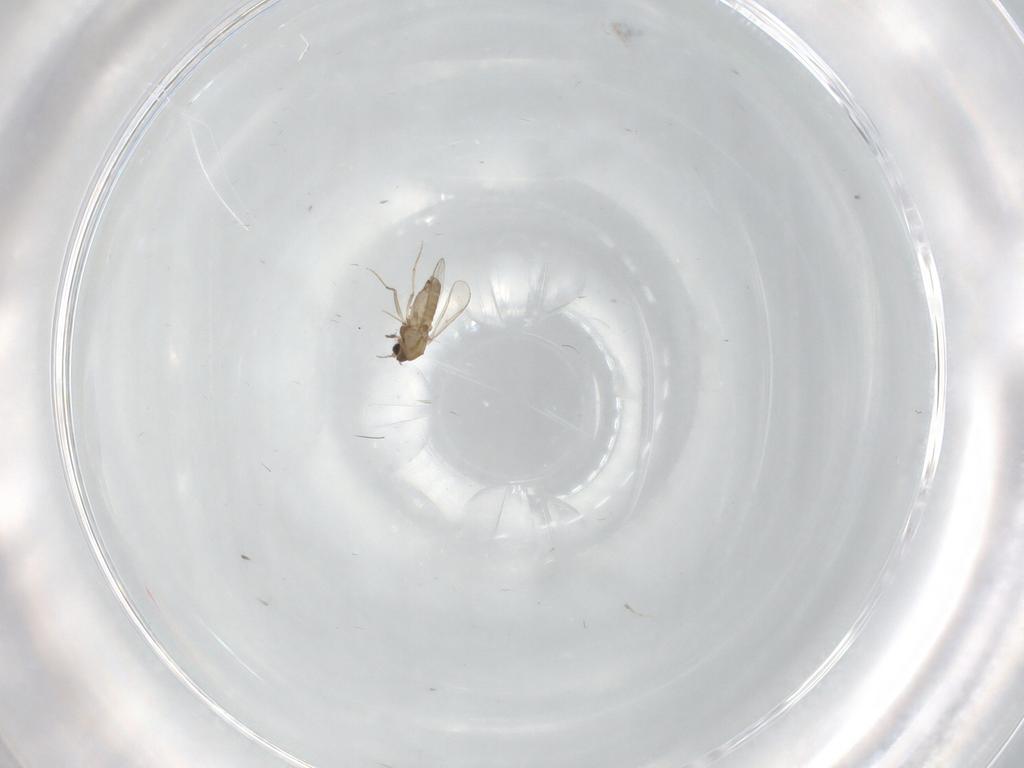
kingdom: Animalia
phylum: Arthropoda
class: Insecta
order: Diptera
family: Chironomidae
